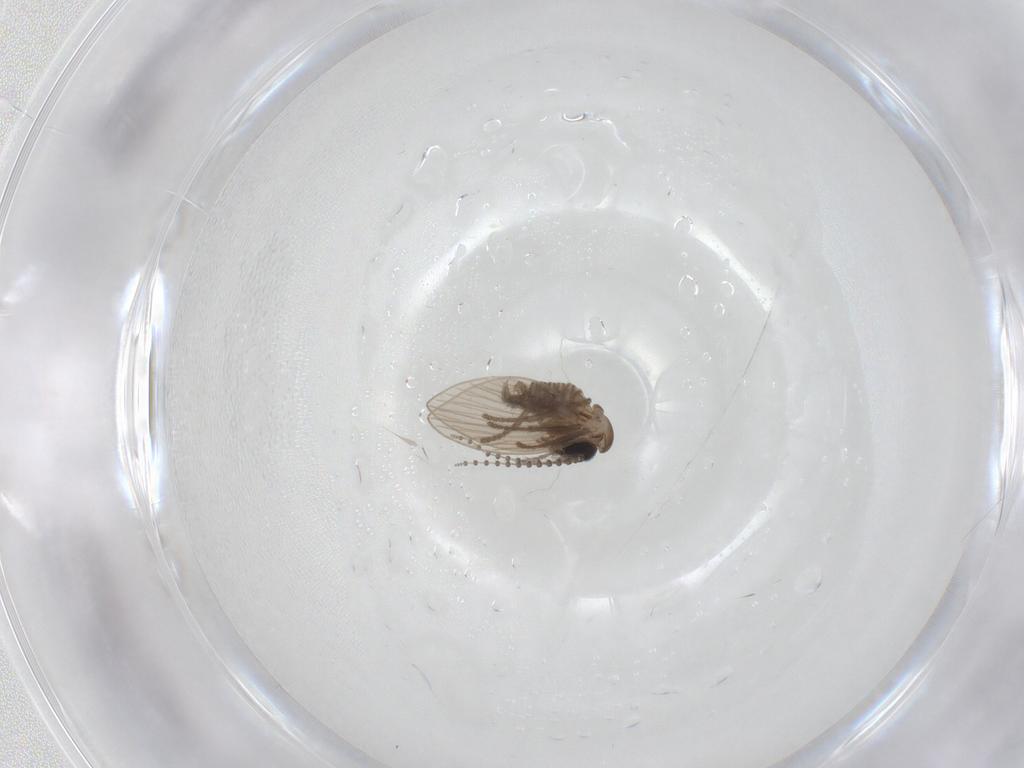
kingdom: Animalia
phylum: Arthropoda
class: Insecta
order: Diptera
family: Psychodidae
